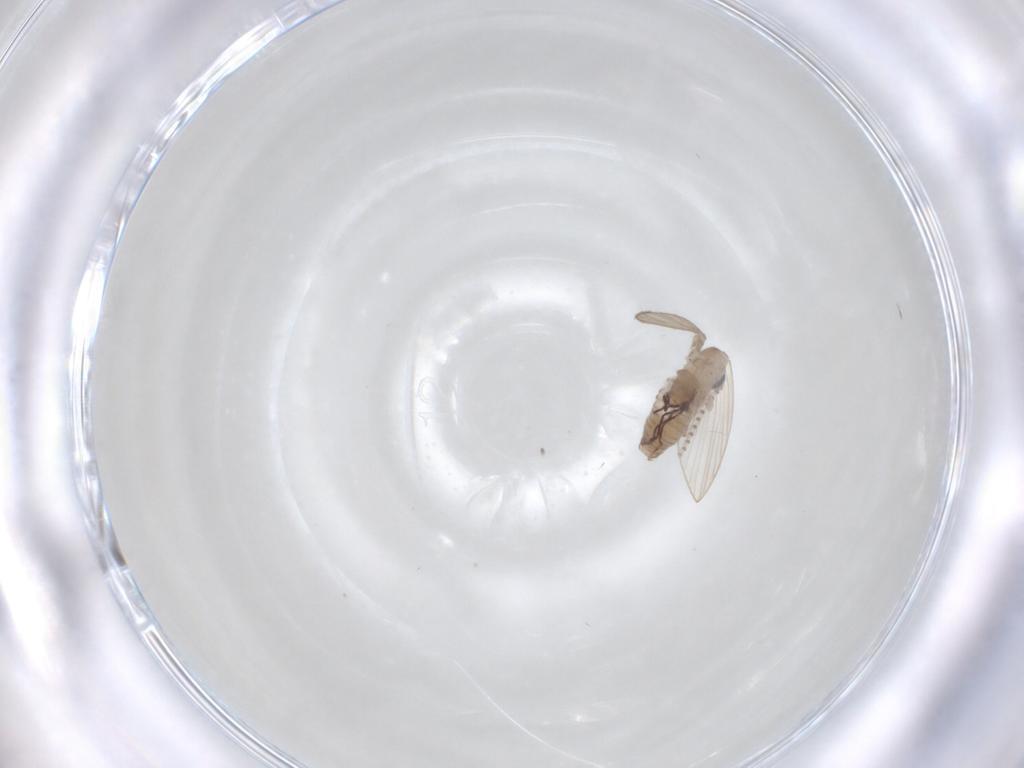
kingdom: Animalia
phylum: Arthropoda
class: Insecta
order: Diptera
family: Psychodidae
